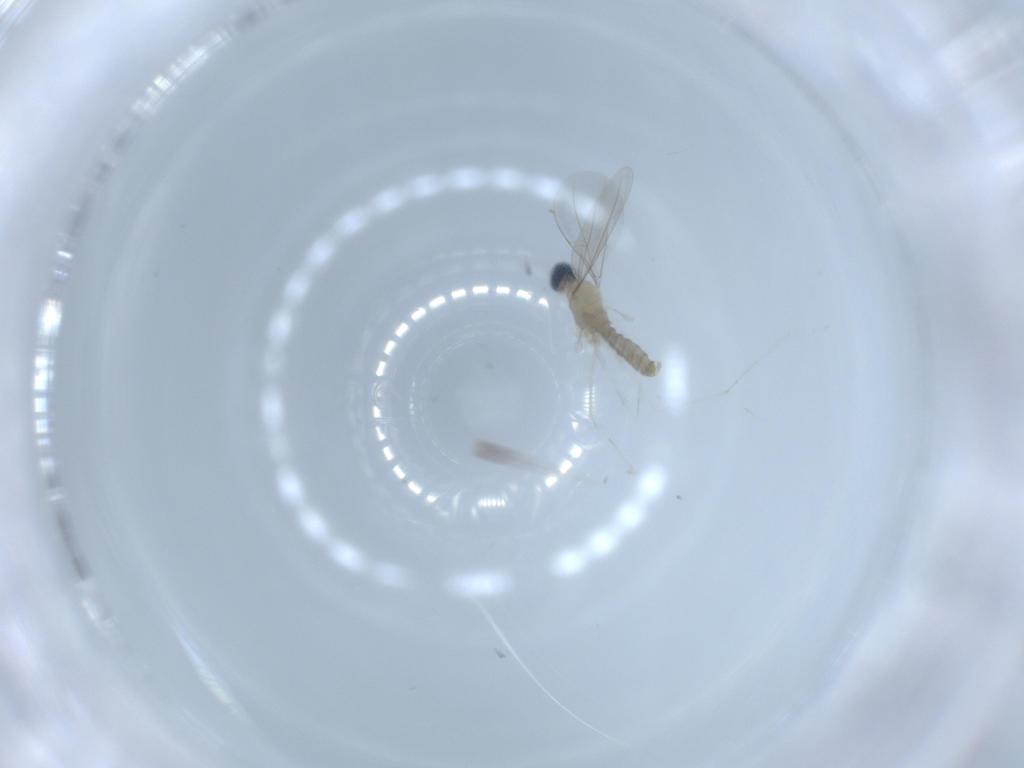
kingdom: Animalia
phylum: Arthropoda
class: Insecta
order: Diptera
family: Cecidomyiidae
